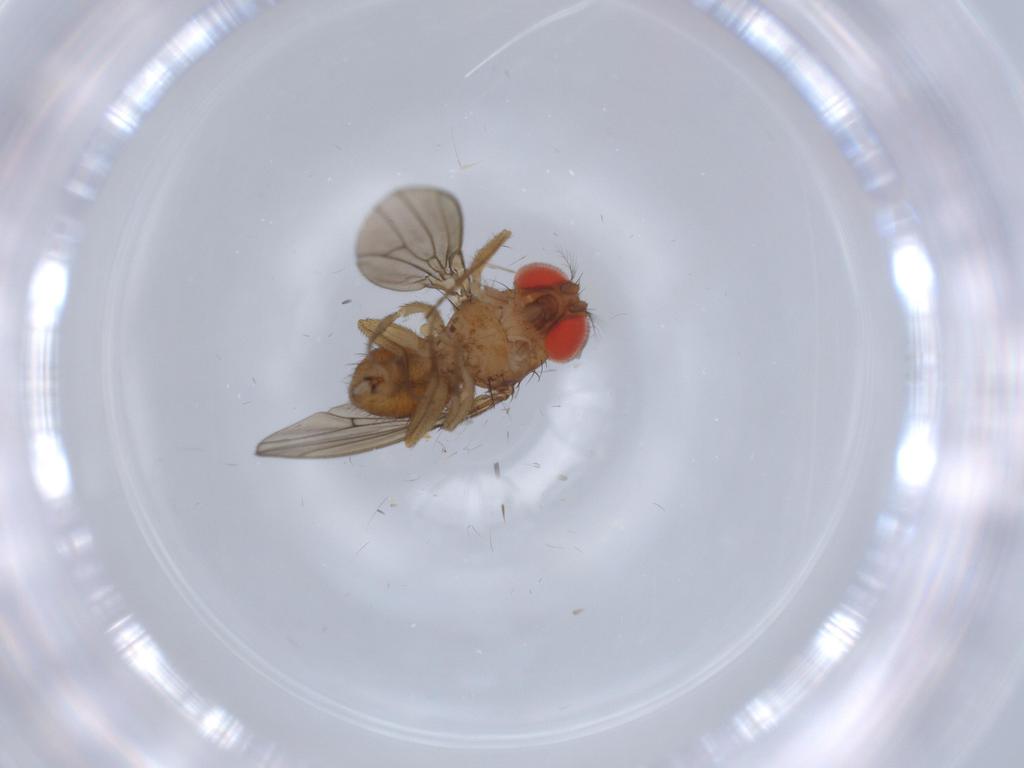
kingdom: Animalia
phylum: Arthropoda
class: Insecta
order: Diptera
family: Drosophilidae
